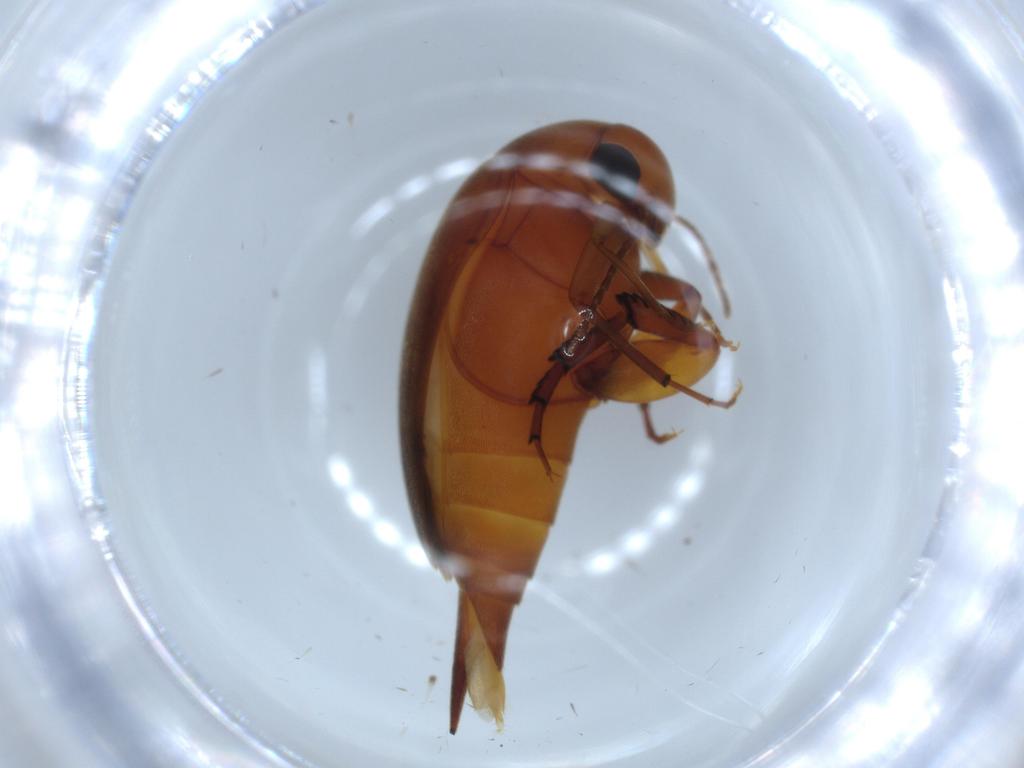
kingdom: Animalia
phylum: Arthropoda
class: Insecta
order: Coleoptera
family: Mordellidae
